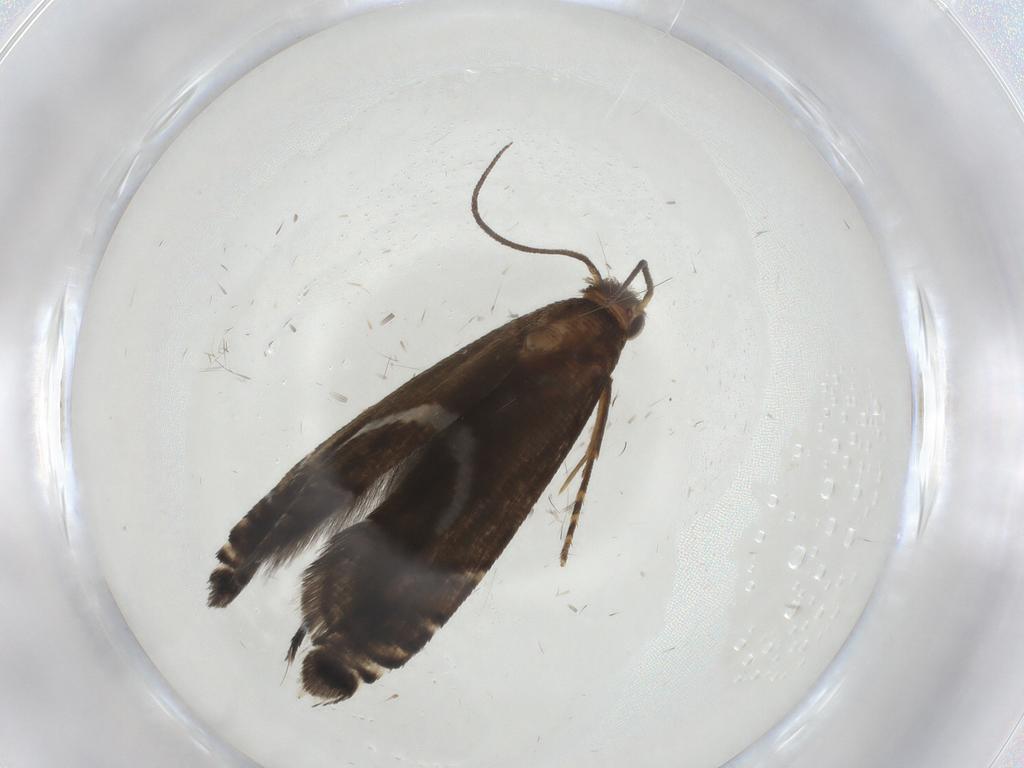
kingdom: Animalia
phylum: Arthropoda
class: Insecta
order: Lepidoptera
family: Glyphipterigidae
